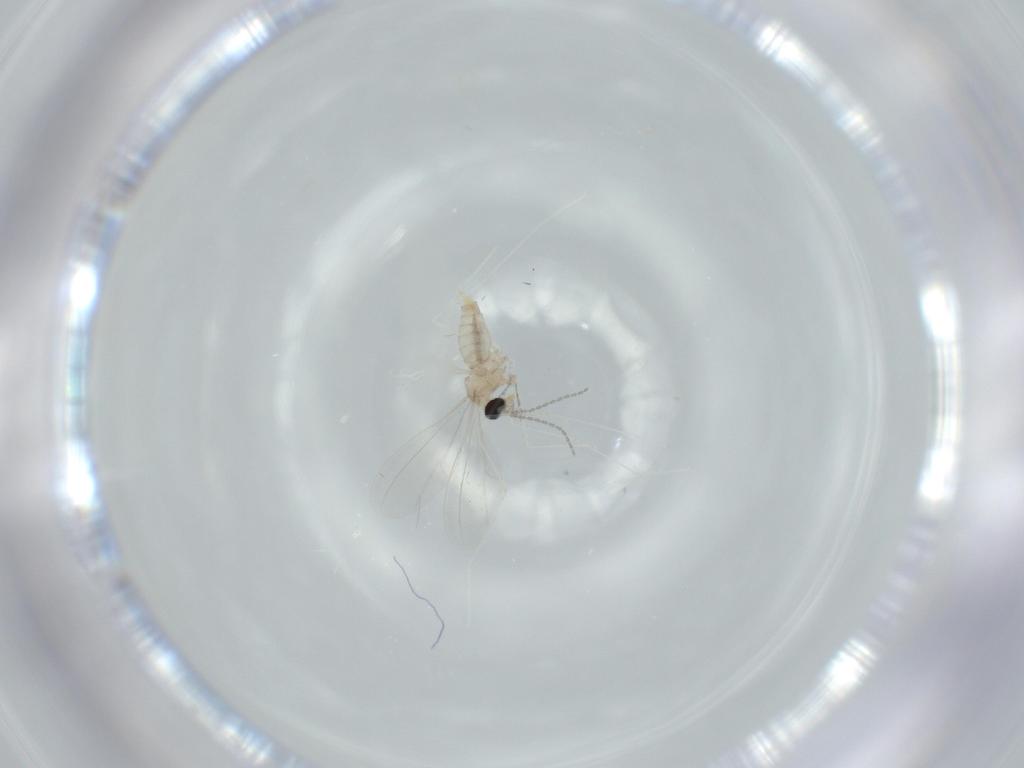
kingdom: Animalia
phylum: Arthropoda
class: Insecta
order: Diptera
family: Cecidomyiidae
